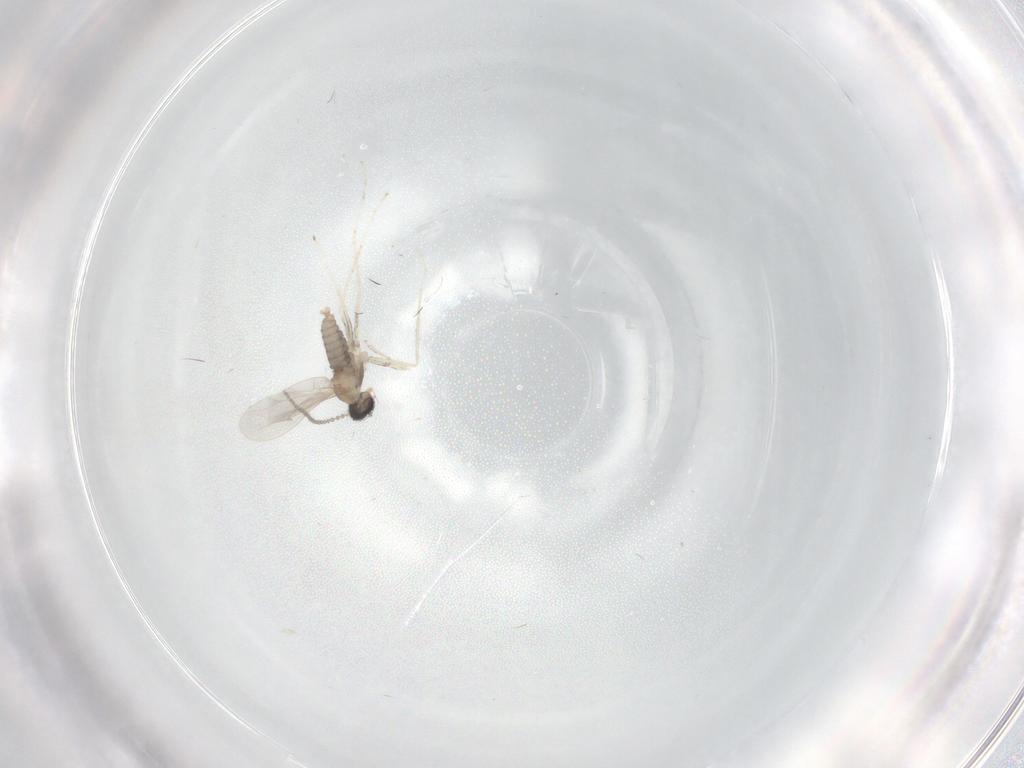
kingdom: Animalia
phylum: Arthropoda
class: Insecta
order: Diptera
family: Cecidomyiidae
